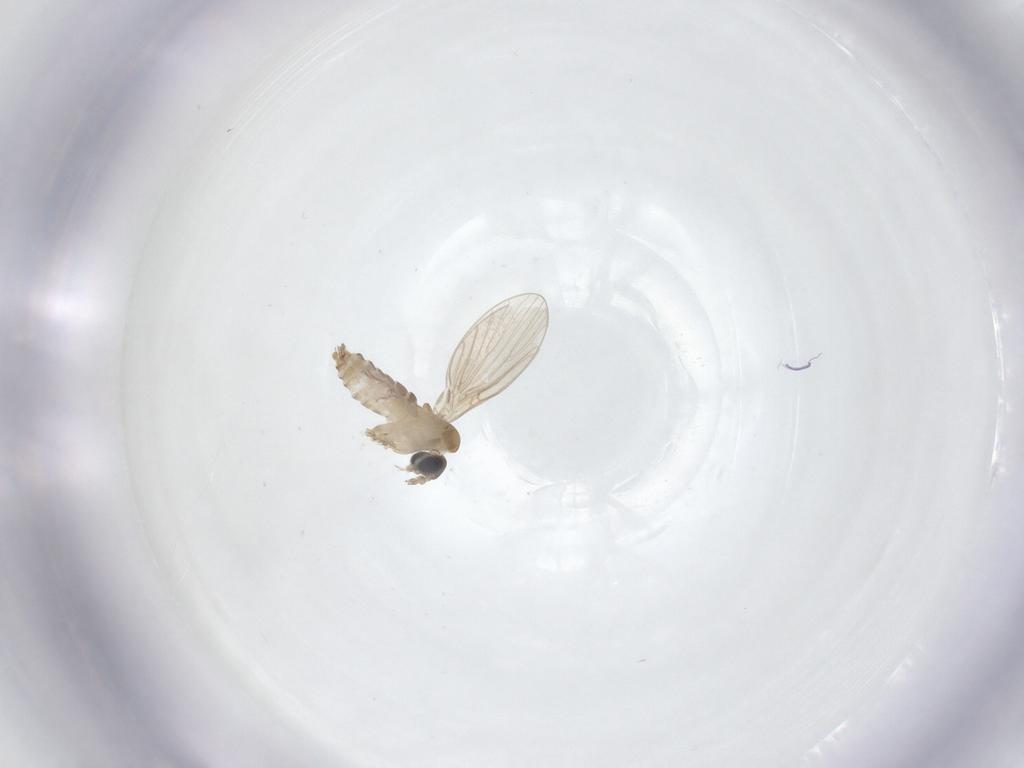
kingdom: Animalia
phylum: Arthropoda
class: Insecta
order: Diptera
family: Psychodidae
